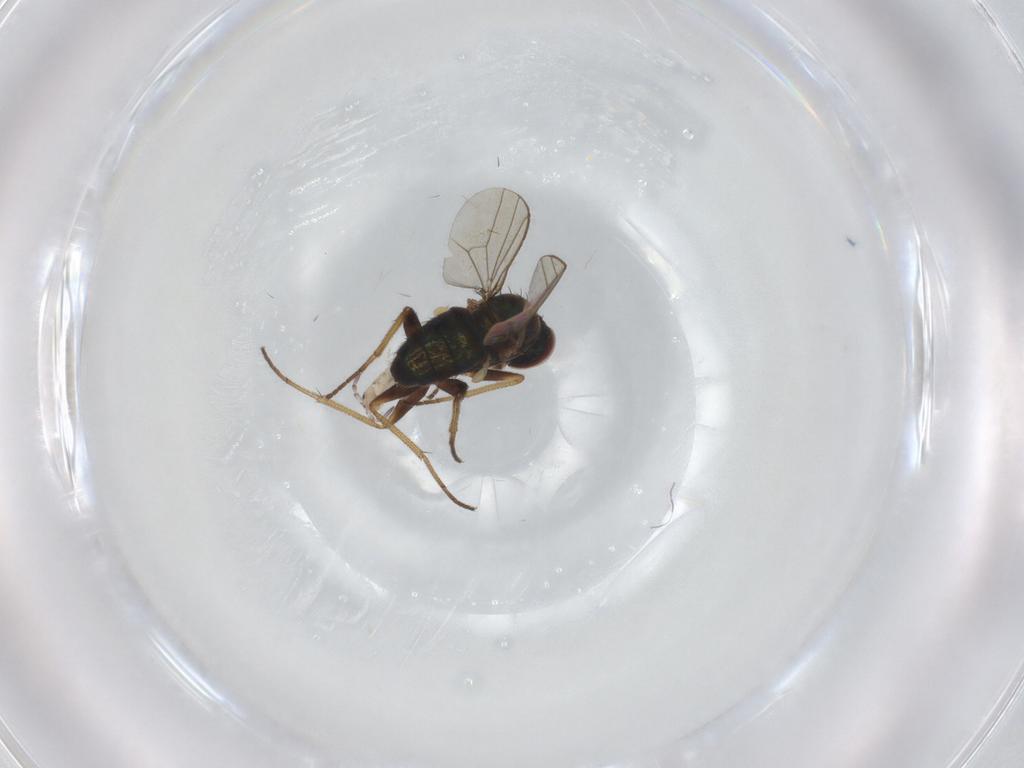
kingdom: Animalia
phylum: Arthropoda
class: Insecta
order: Diptera
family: Dolichopodidae
